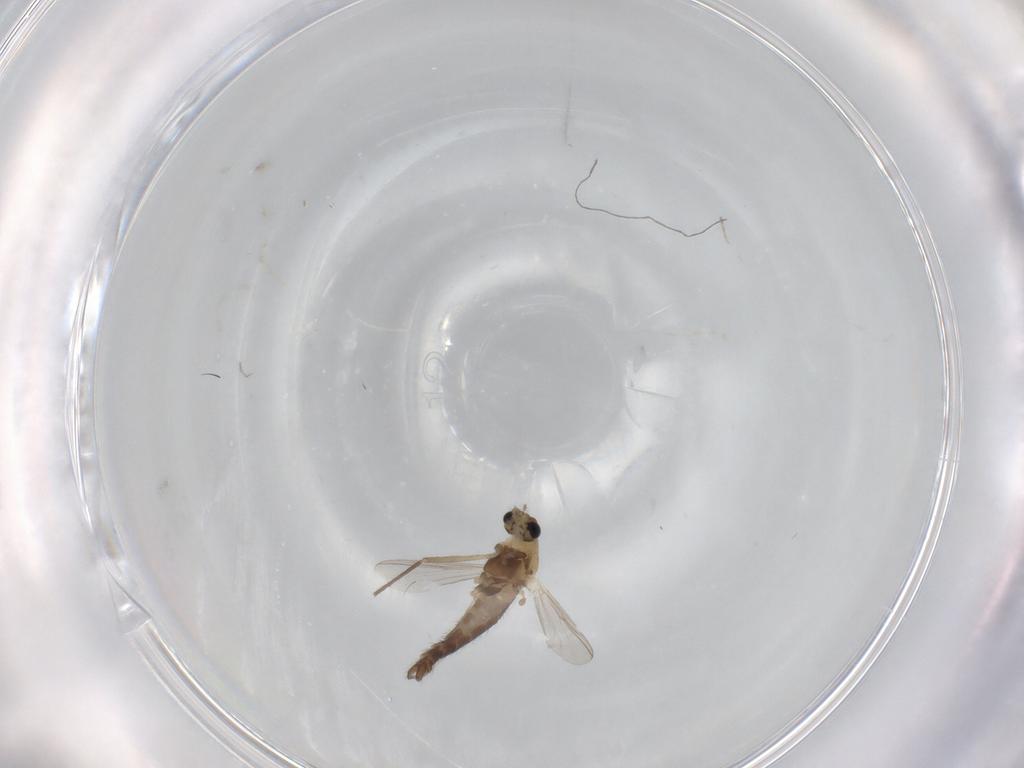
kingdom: Animalia
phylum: Arthropoda
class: Insecta
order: Diptera
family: Chironomidae
